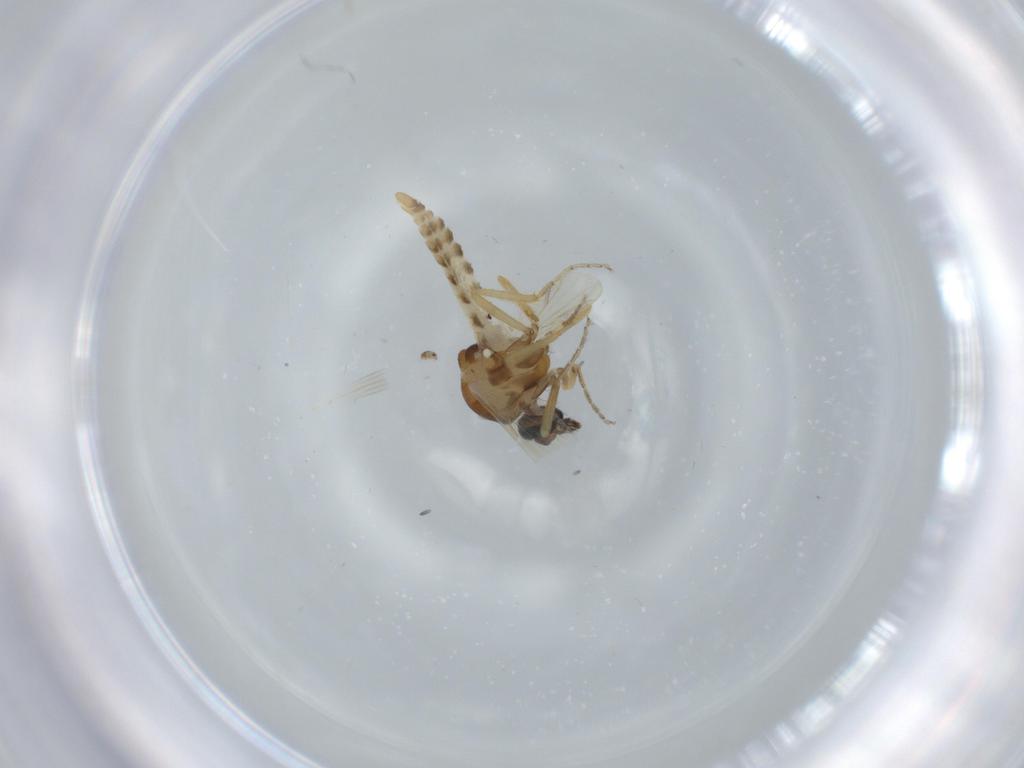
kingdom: Animalia
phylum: Arthropoda
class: Insecta
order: Diptera
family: Ceratopogonidae
